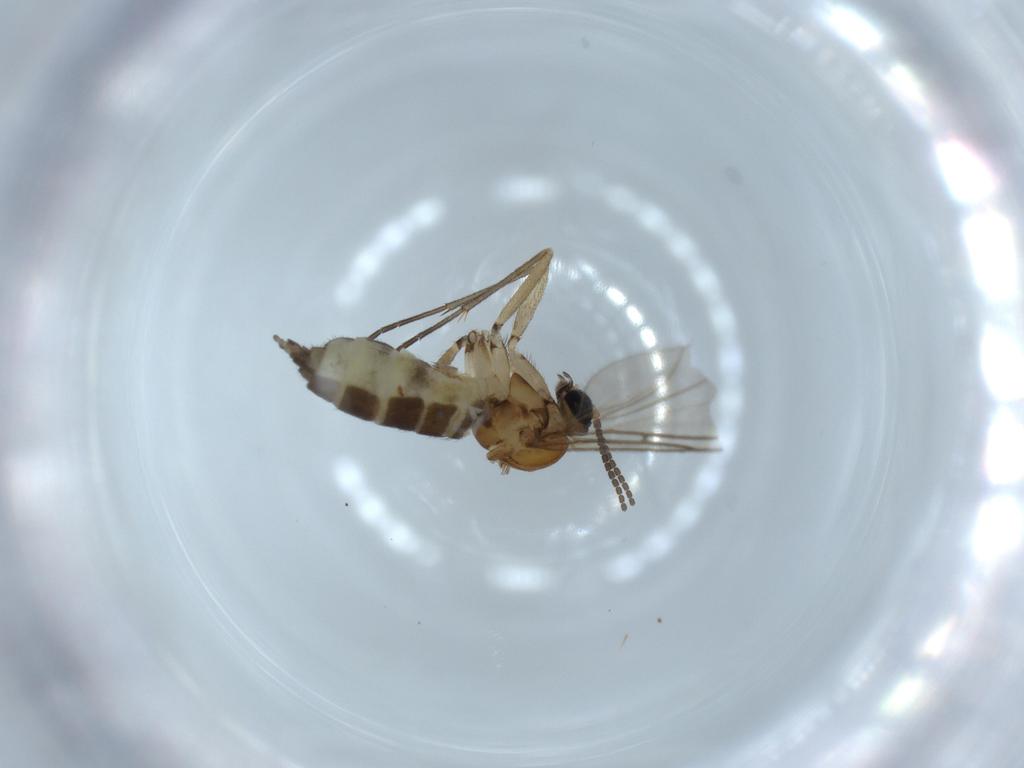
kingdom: Animalia
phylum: Arthropoda
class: Insecta
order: Diptera
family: Sciaridae
